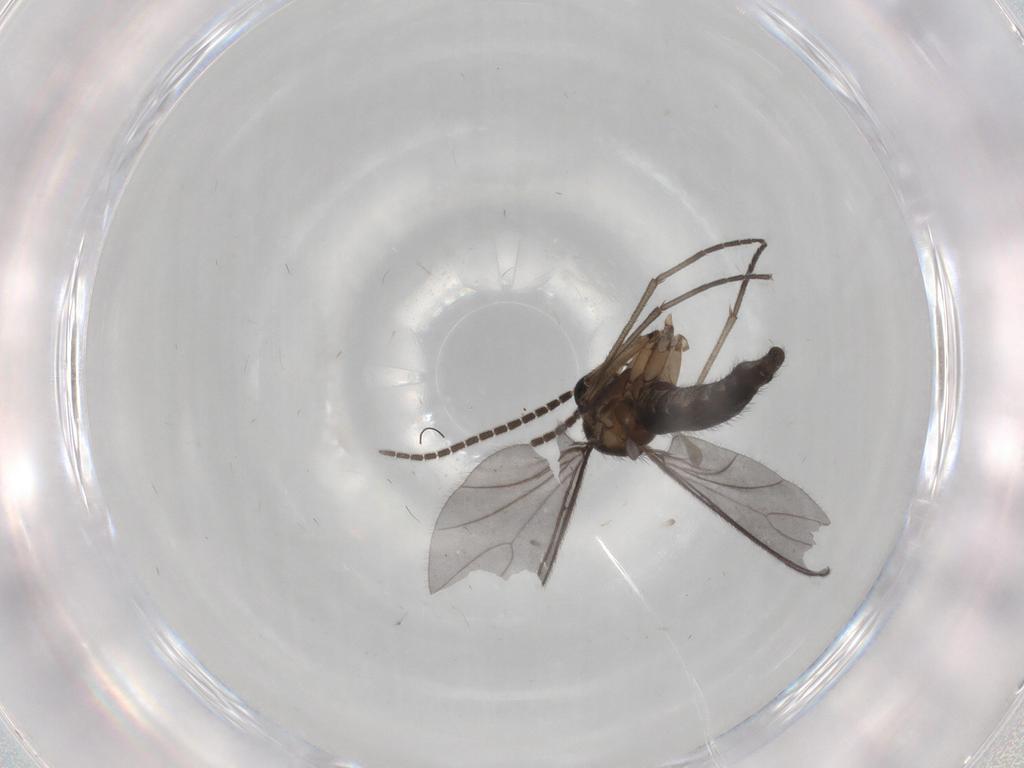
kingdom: Animalia
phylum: Arthropoda
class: Insecta
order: Diptera
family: Sciaridae
